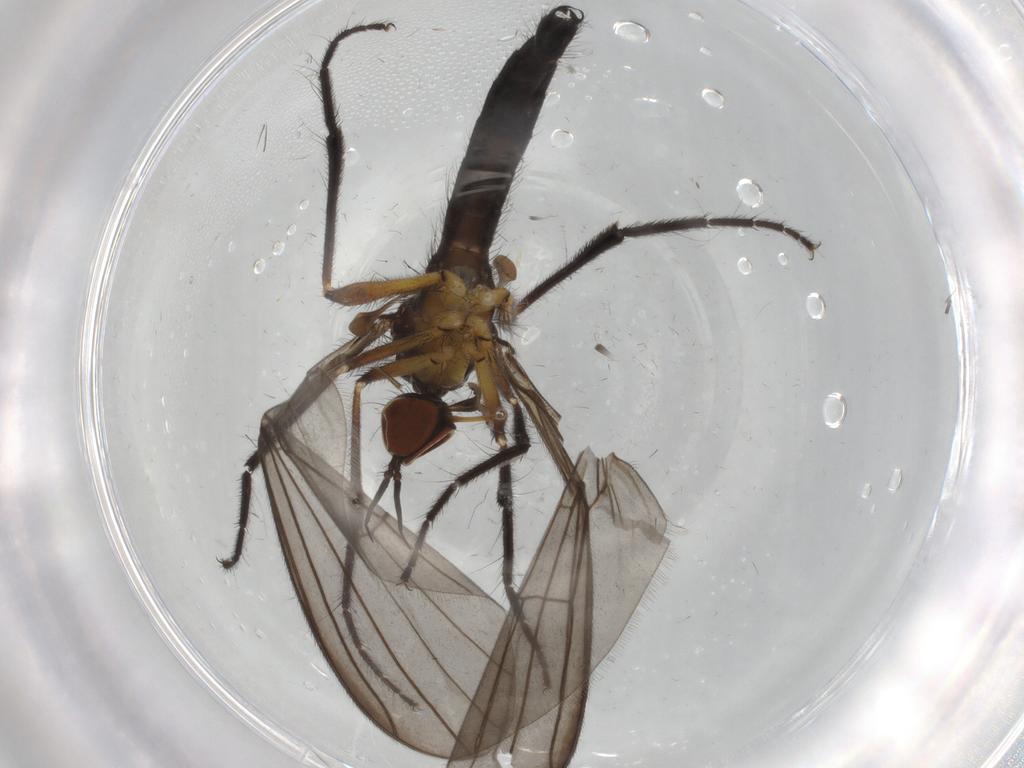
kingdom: Animalia
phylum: Arthropoda
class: Insecta
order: Diptera
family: Empididae
